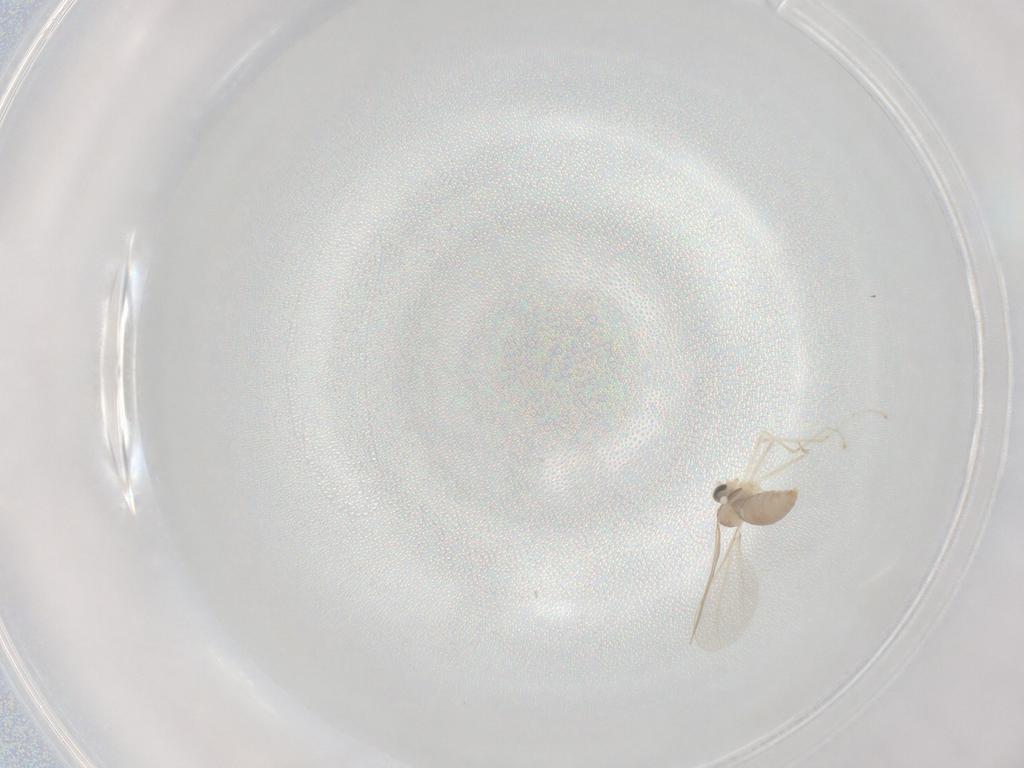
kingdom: Animalia
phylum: Arthropoda
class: Insecta
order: Diptera
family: Cecidomyiidae
